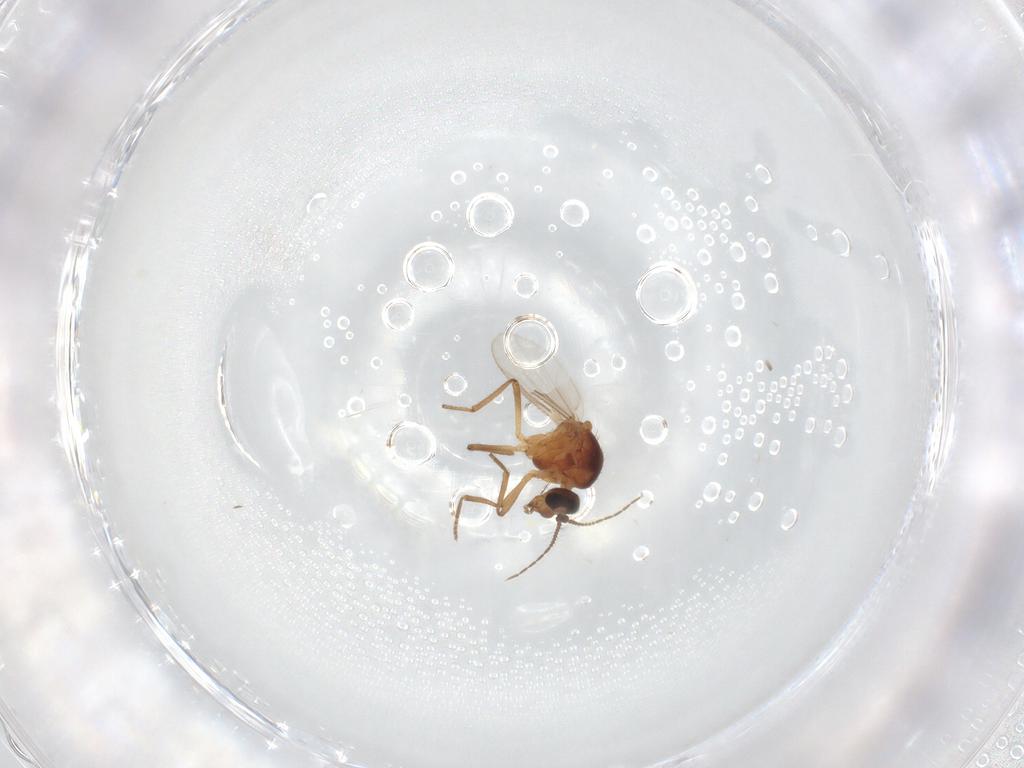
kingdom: Animalia
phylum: Arthropoda
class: Insecta
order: Diptera
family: Ceratopogonidae
